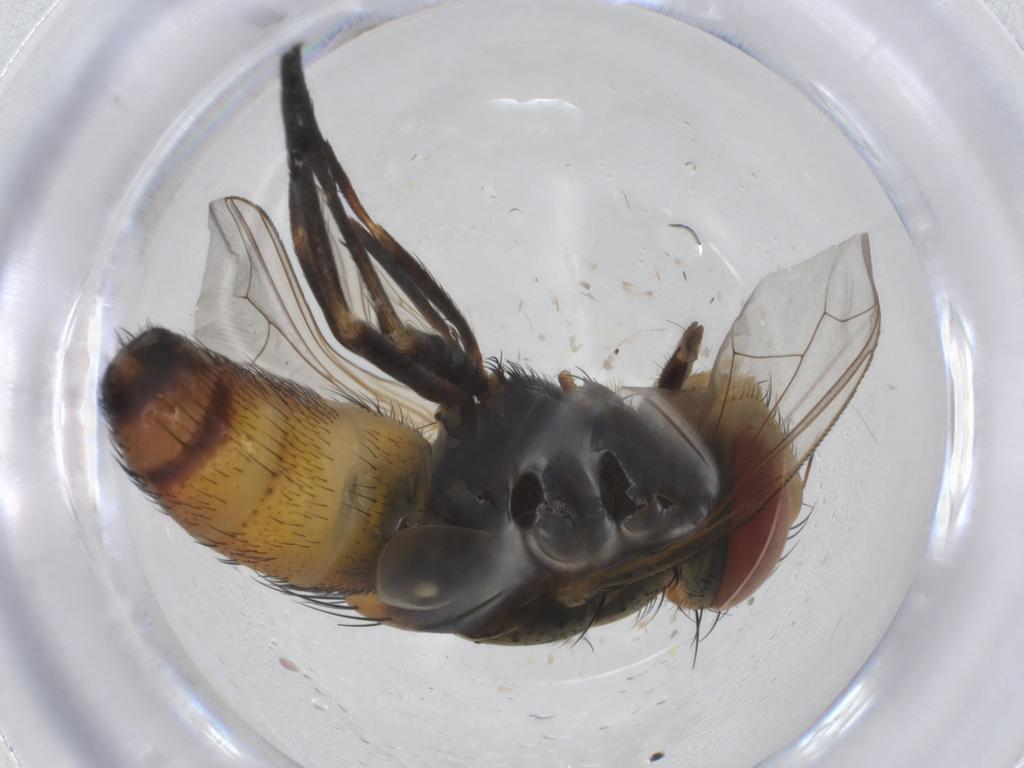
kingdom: Animalia
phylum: Arthropoda
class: Insecta
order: Diptera
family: Sarcophagidae
